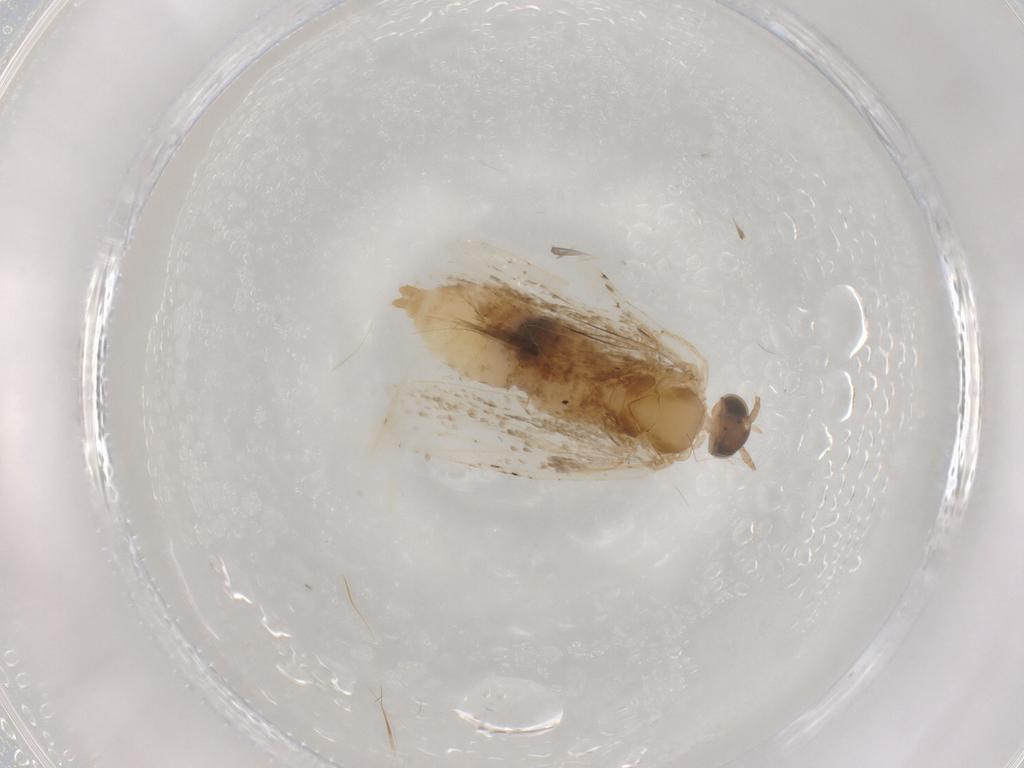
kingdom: Animalia
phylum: Arthropoda
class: Insecta
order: Lepidoptera
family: Tortricidae
